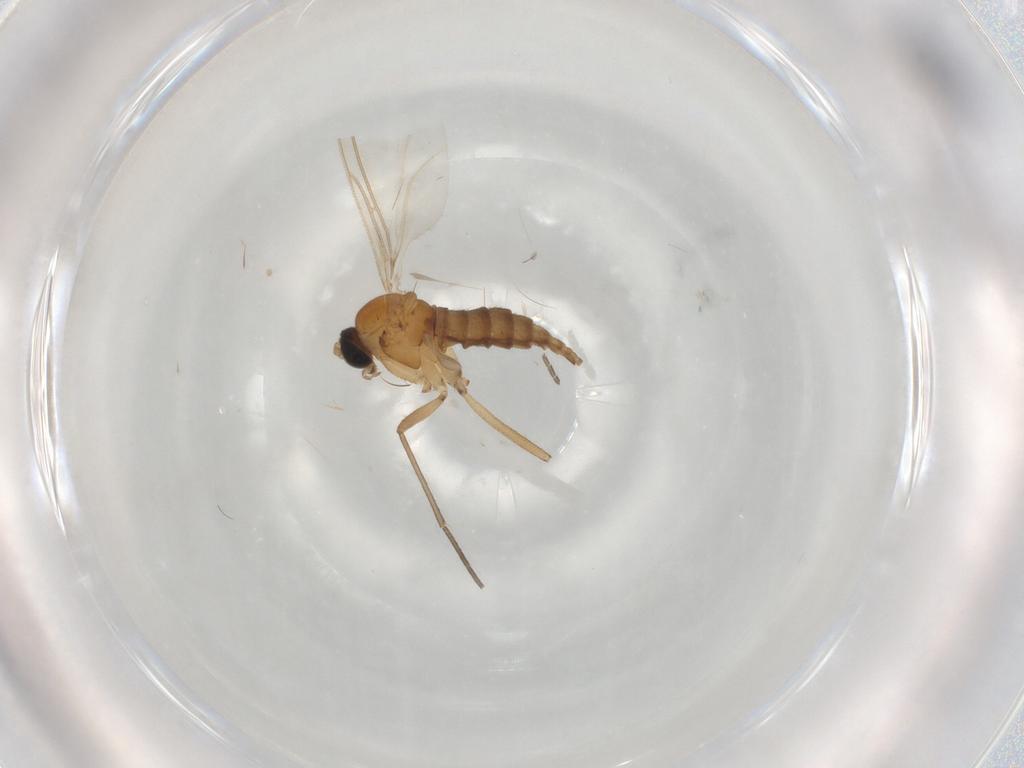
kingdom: Animalia
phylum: Arthropoda
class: Insecta
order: Diptera
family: Sciaridae
